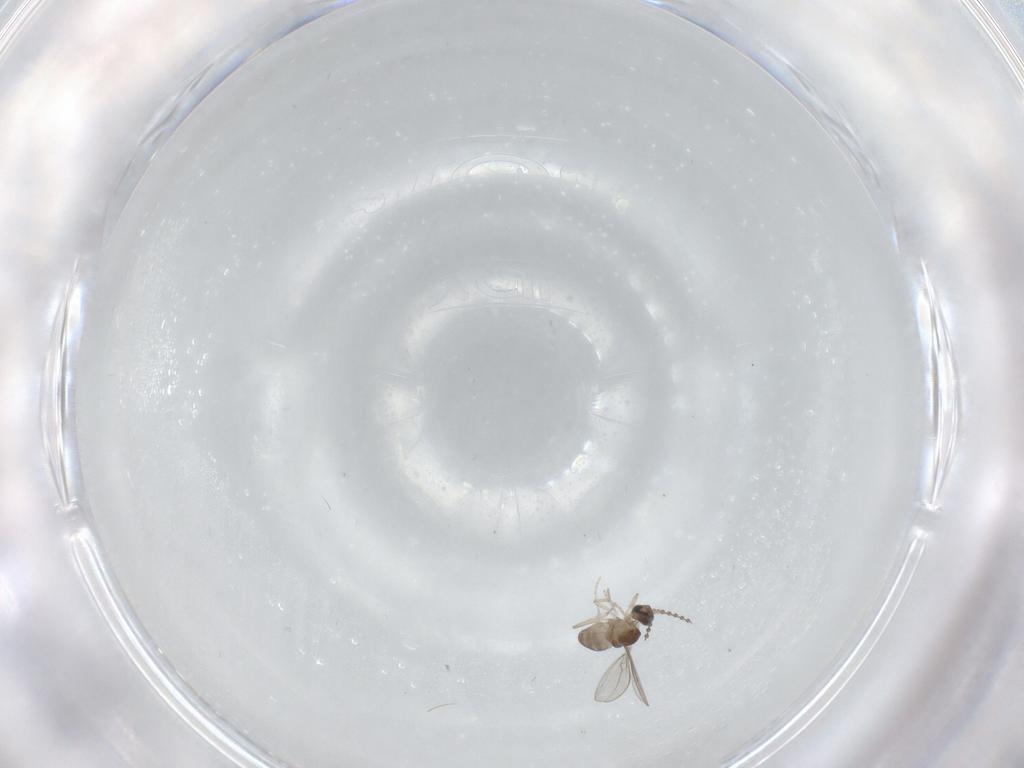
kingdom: Animalia
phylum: Arthropoda
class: Insecta
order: Diptera
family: Cecidomyiidae
